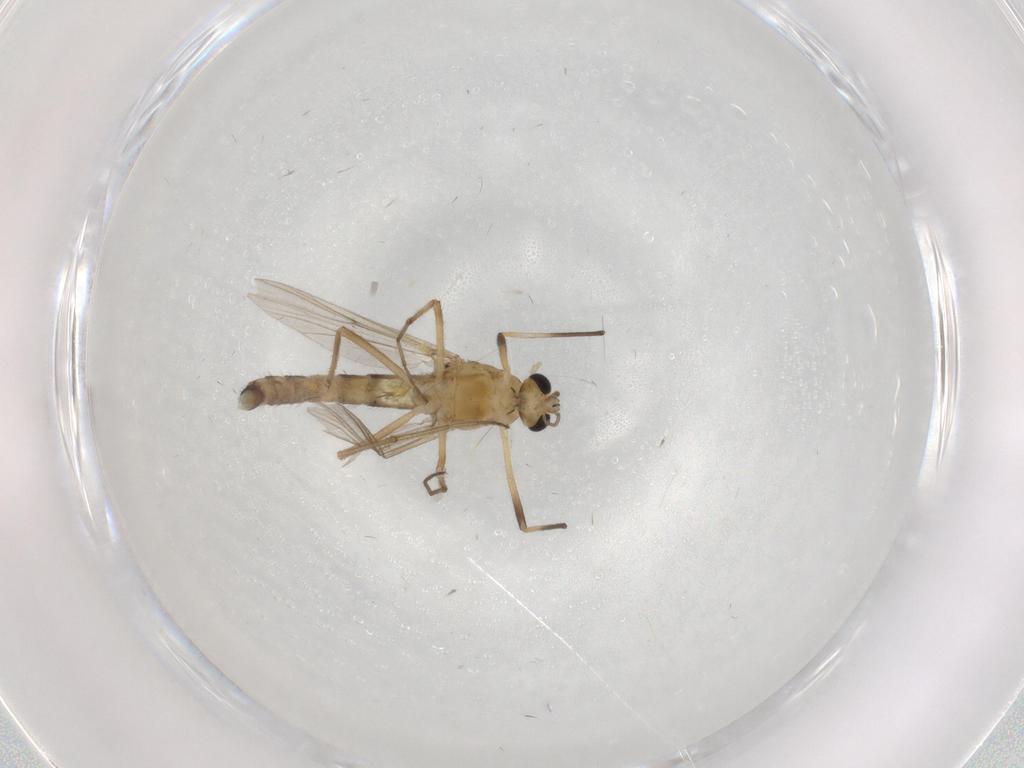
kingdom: Animalia
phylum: Arthropoda
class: Insecta
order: Diptera
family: Chironomidae
